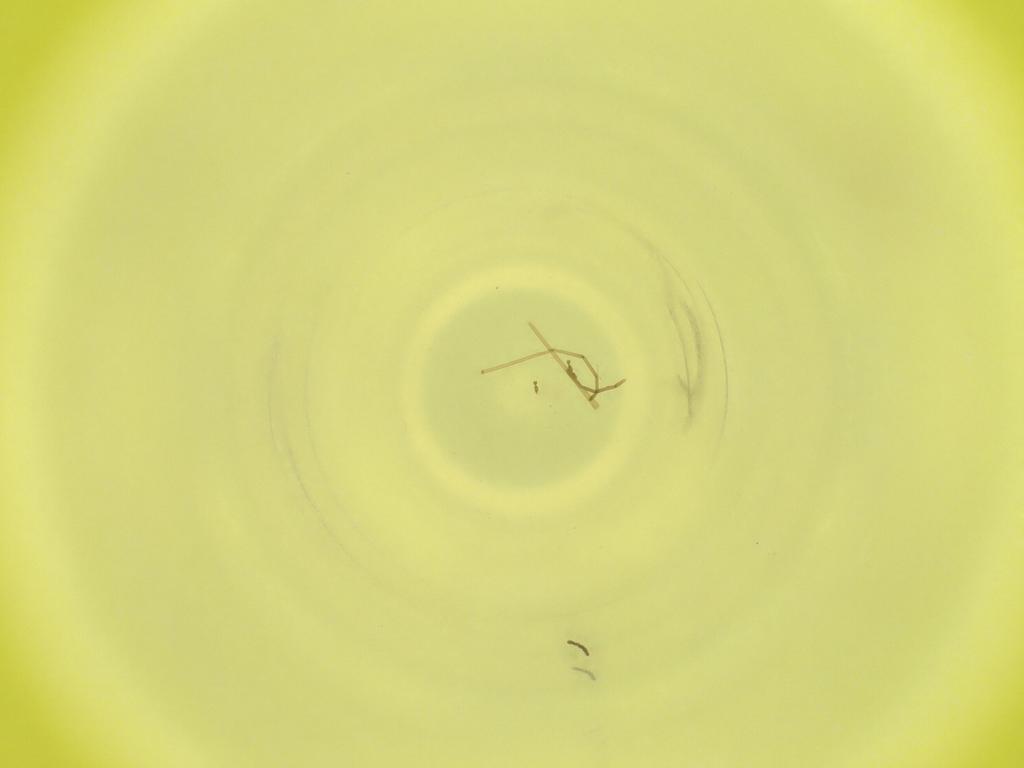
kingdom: Animalia
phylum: Arthropoda
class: Insecta
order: Diptera
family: Cecidomyiidae
